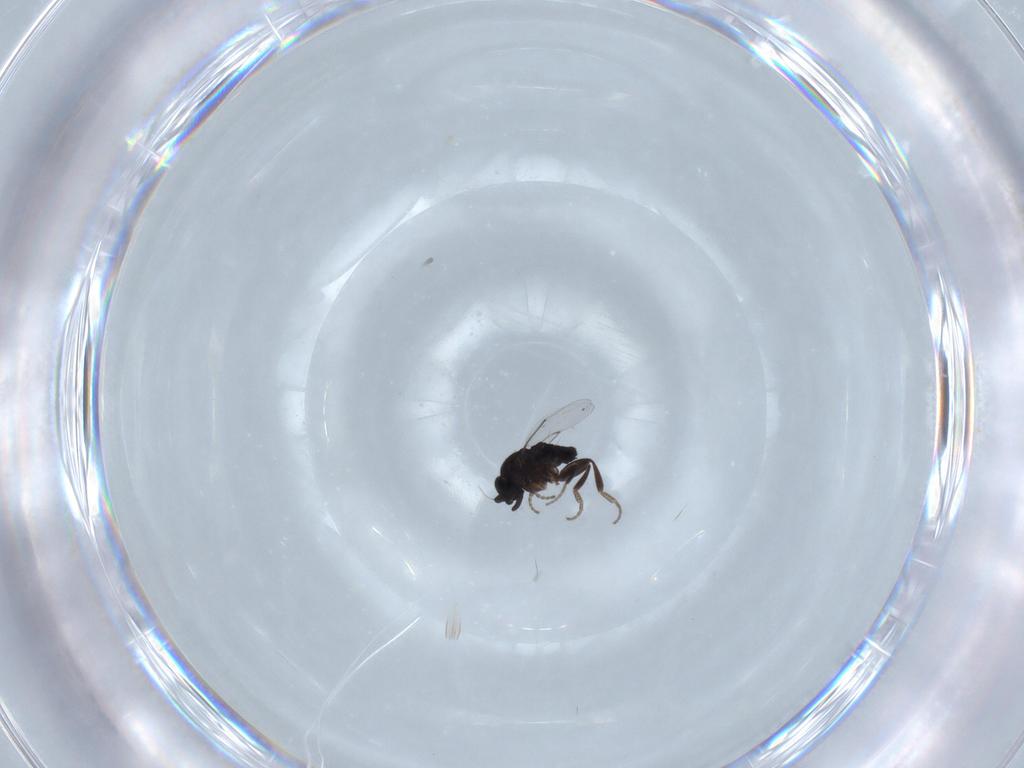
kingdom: Animalia
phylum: Arthropoda
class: Insecta
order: Diptera
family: Phoridae
